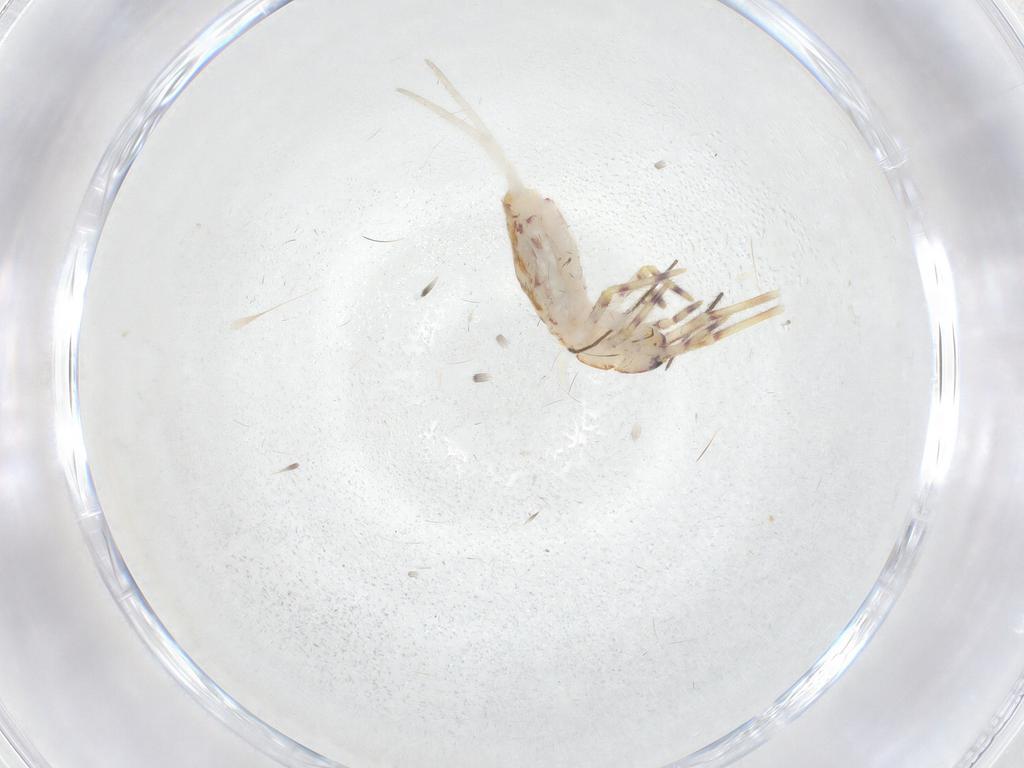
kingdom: Animalia
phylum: Arthropoda
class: Collembola
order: Entomobryomorpha
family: Entomobryidae
